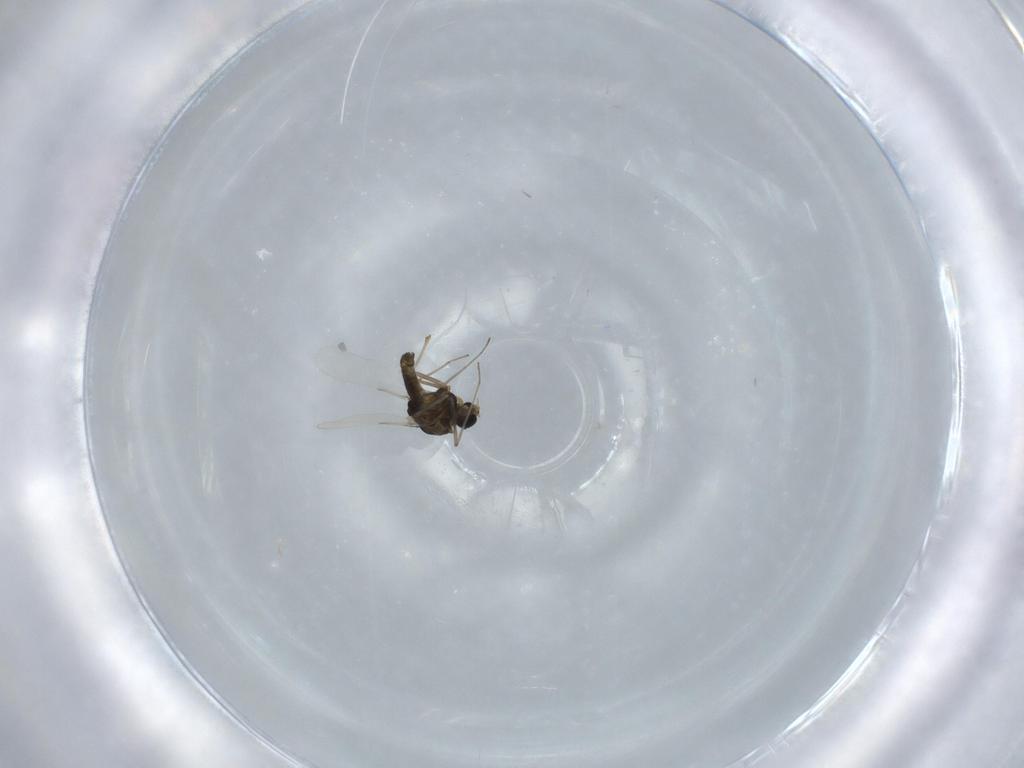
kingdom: Animalia
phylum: Arthropoda
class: Insecta
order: Diptera
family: Chironomidae
